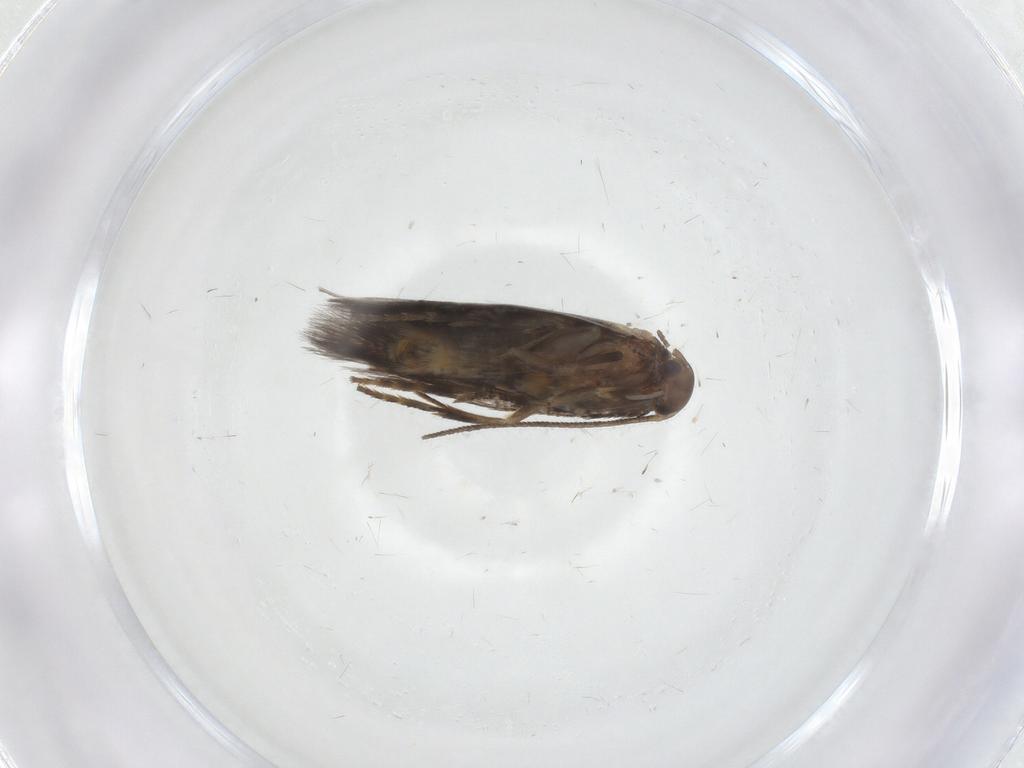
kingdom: Animalia
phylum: Arthropoda
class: Insecta
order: Lepidoptera
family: Elachistidae
